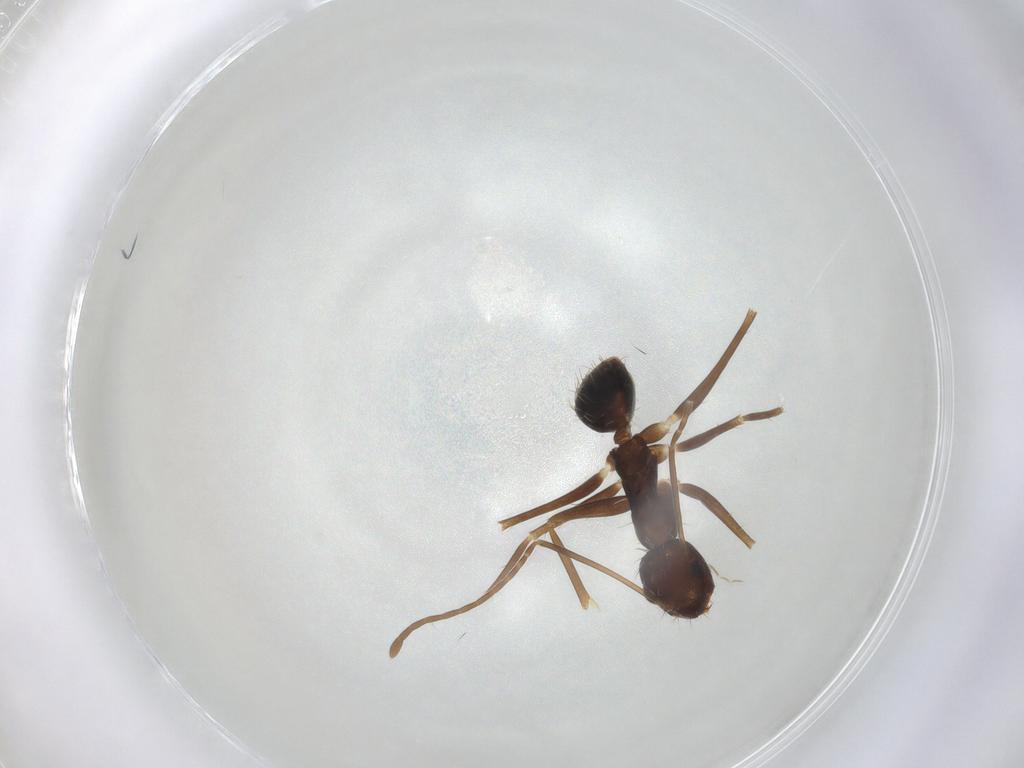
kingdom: Animalia
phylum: Arthropoda
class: Insecta
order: Hymenoptera
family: Formicidae
